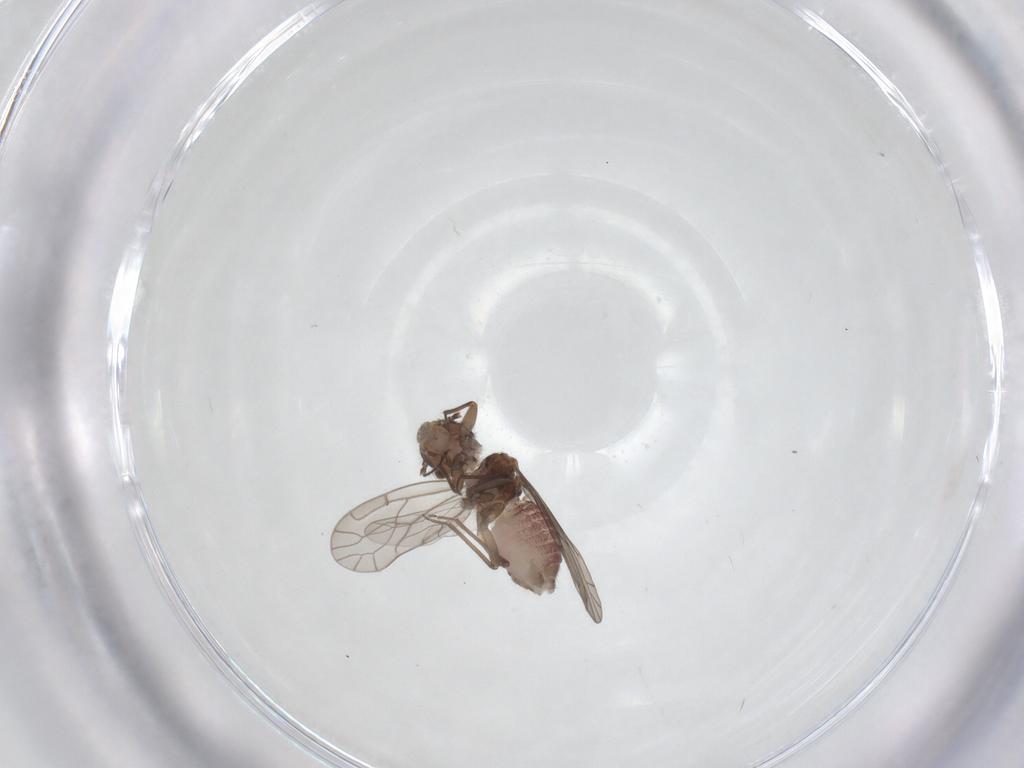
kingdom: Animalia
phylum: Arthropoda
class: Insecta
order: Psocodea
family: Ectopsocidae
